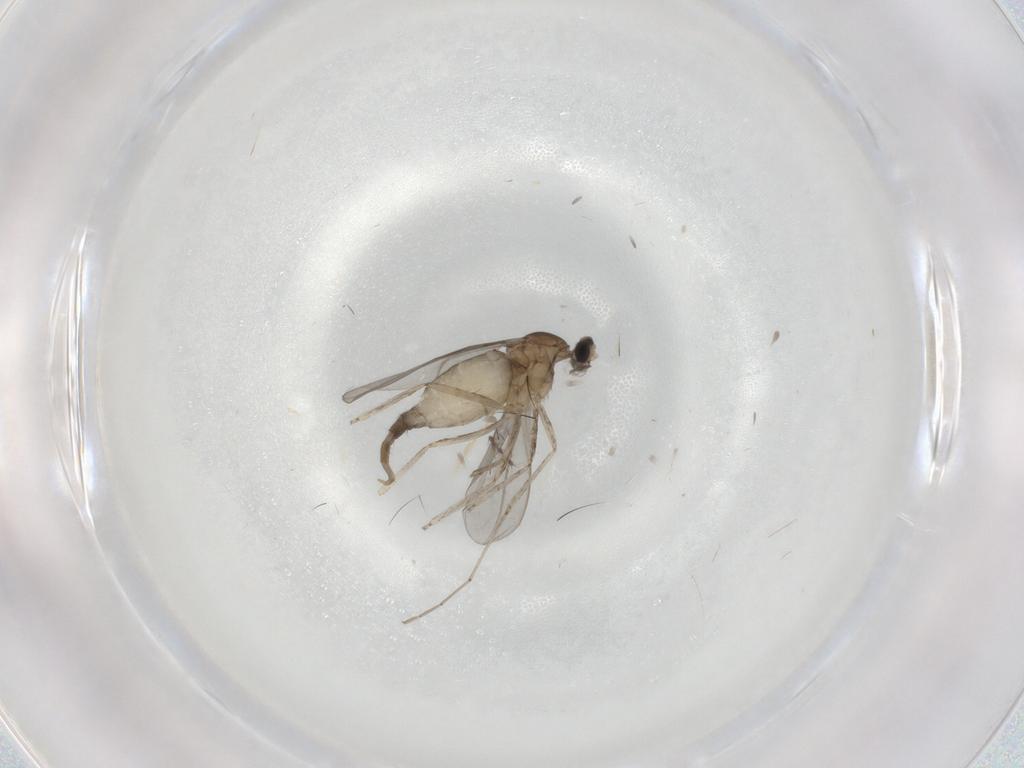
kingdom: Animalia
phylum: Arthropoda
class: Insecta
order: Diptera
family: Cecidomyiidae
